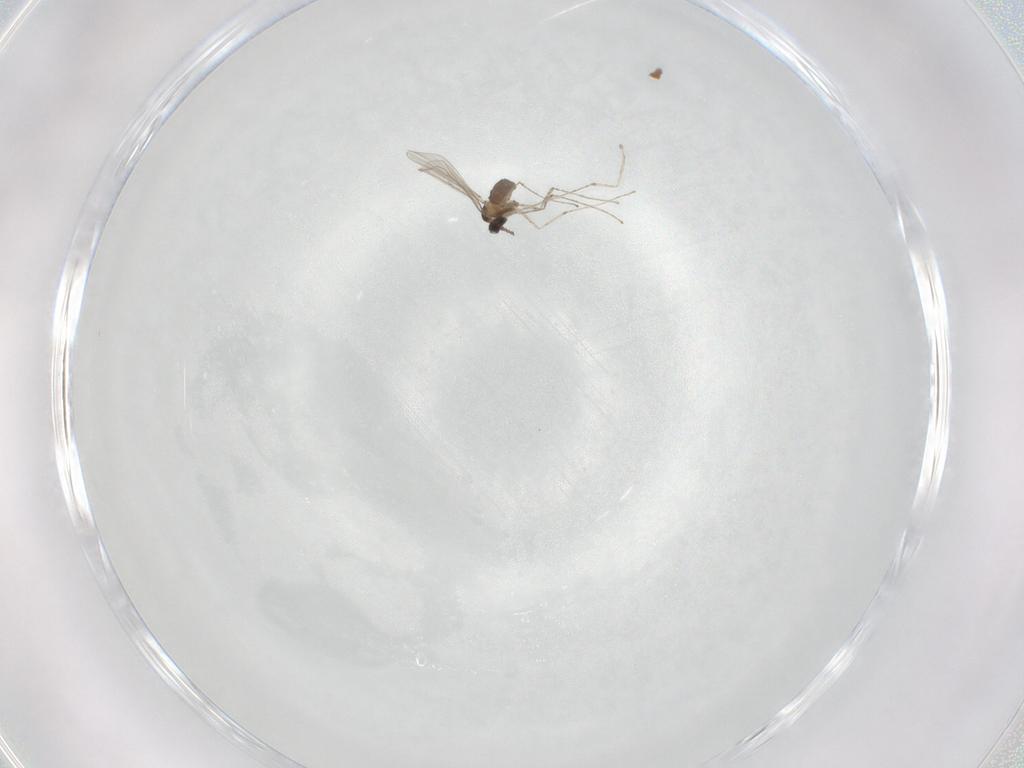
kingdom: Animalia
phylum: Arthropoda
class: Insecta
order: Diptera
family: Cecidomyiidae
